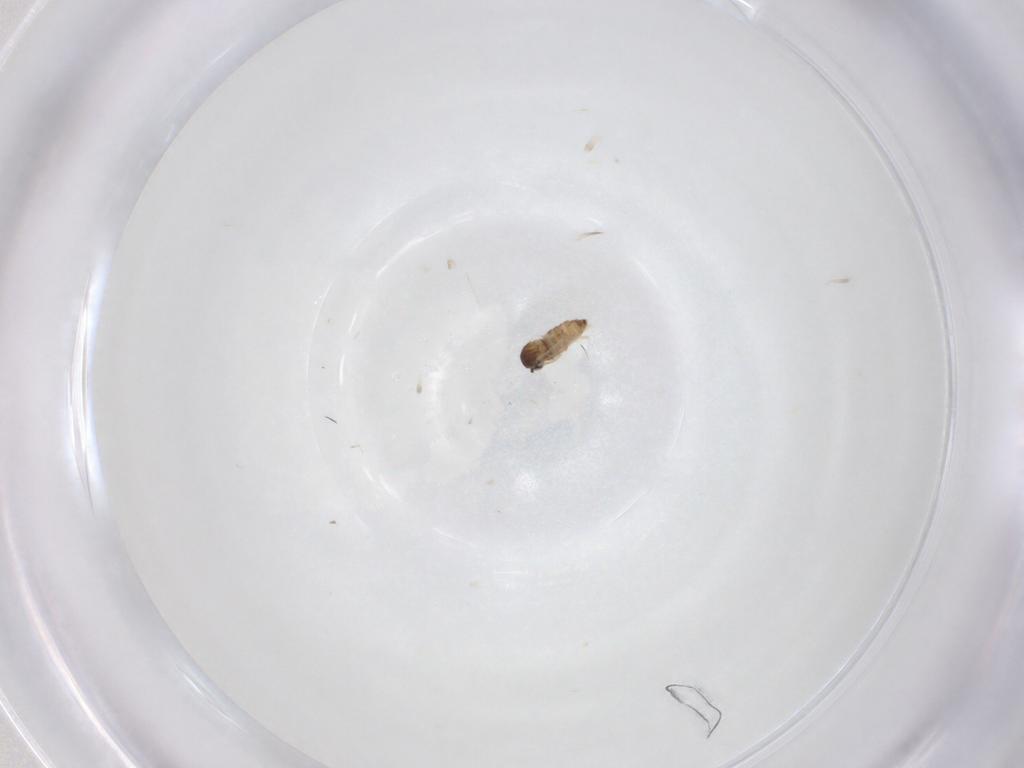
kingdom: Animalia
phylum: Arthropoda
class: Insecta
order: Diptera
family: Cecidomyiidae
